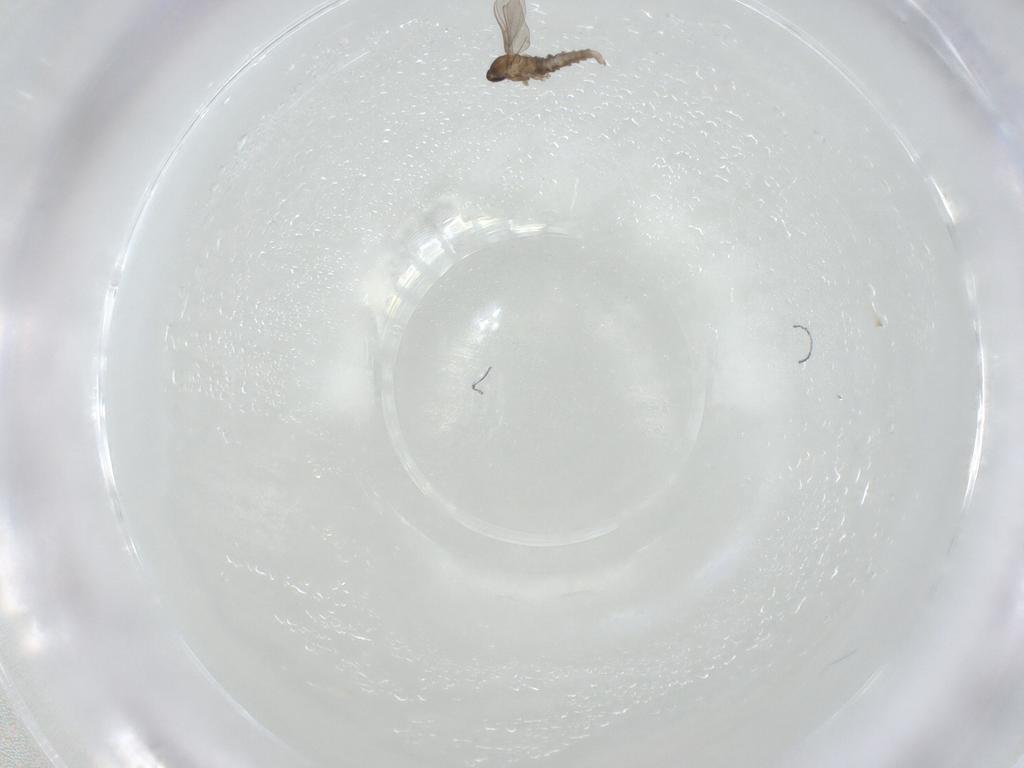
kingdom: Animalia
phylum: Arthropoda
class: Insecta
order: Diptera
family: Cecidomyiidae
